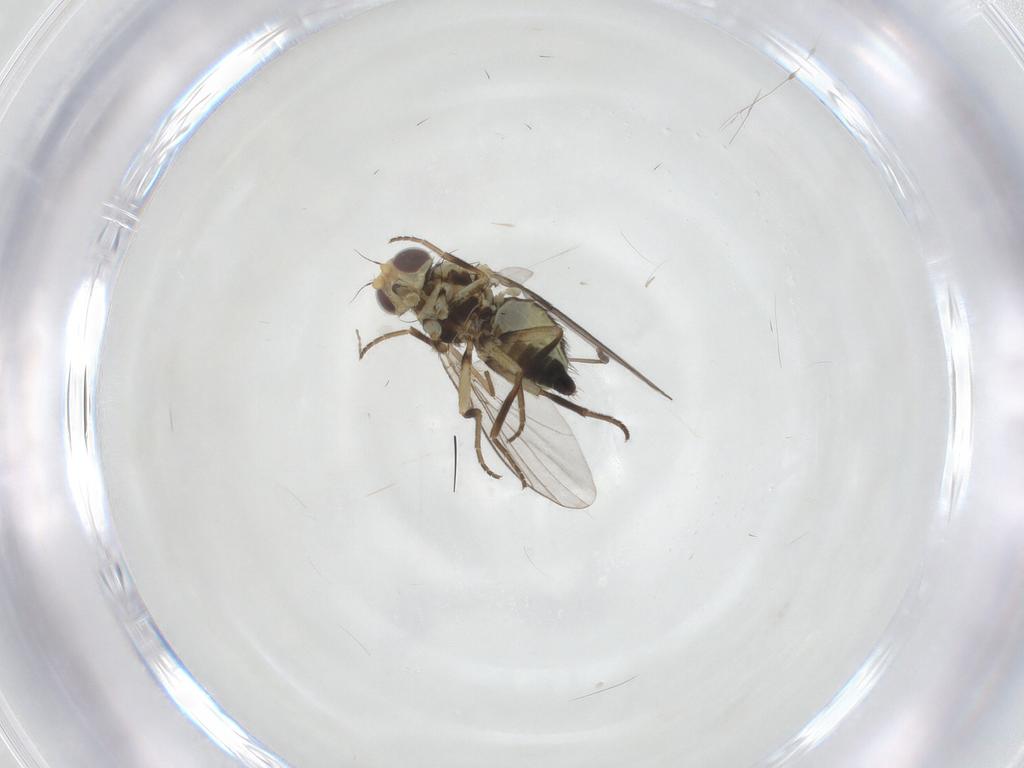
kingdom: Animalia
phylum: Arthropoda
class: Insecta
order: Diptera
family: Agromyzidae
